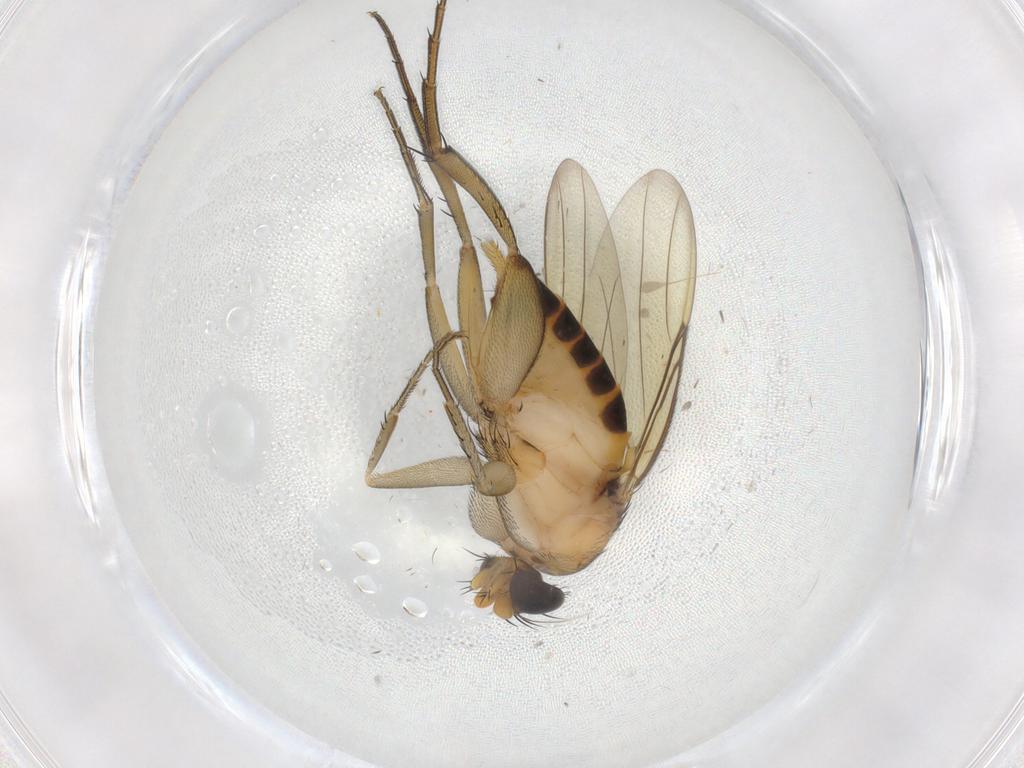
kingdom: Animalia
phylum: Arthropoda
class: Insecta
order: Diptera
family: Phoridae
